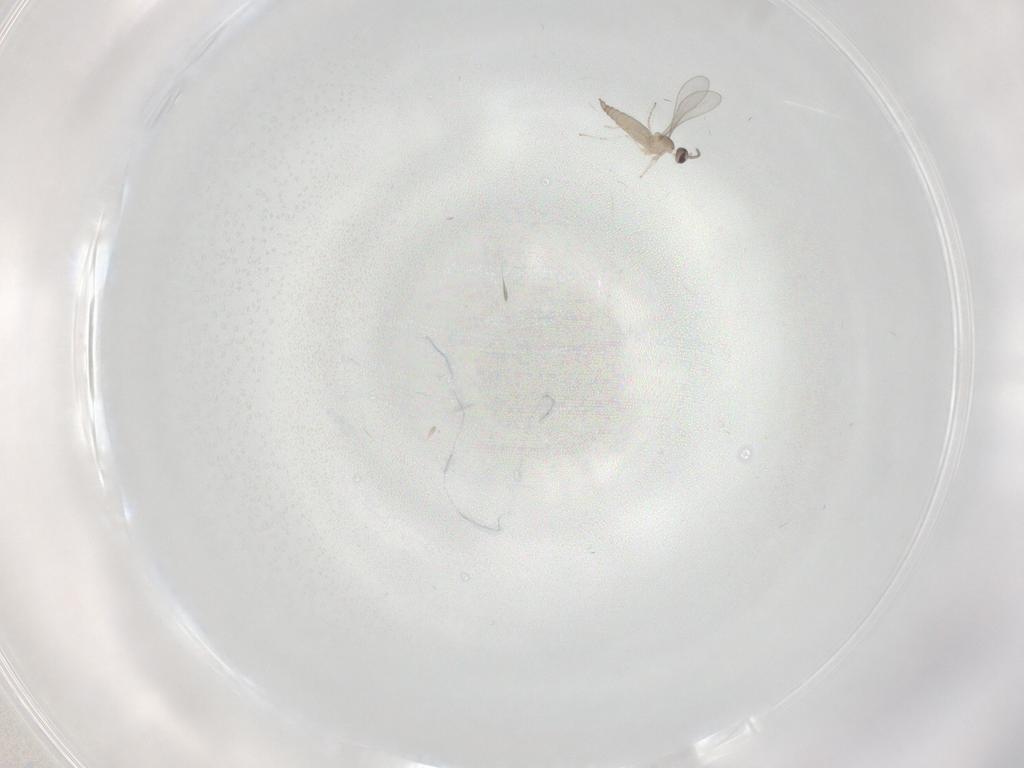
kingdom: Animalia
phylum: Arthropoda
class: Insecta
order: Diptera
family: Cecidomyiidae
